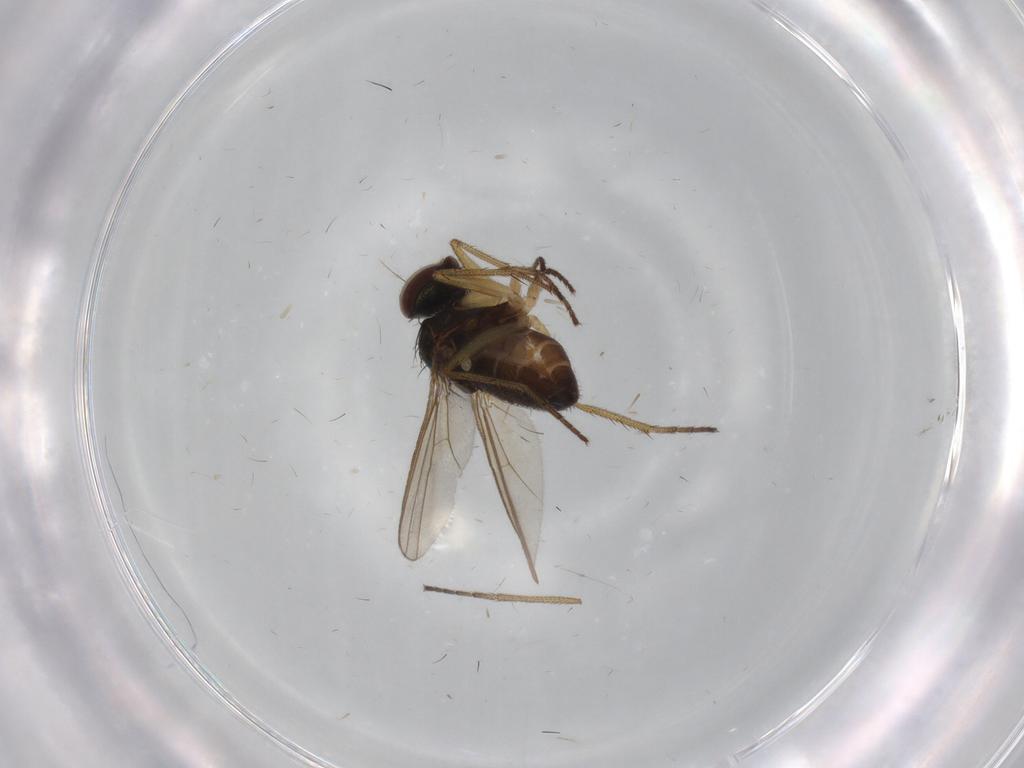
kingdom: Animalia
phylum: Arthropoda
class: Insecta
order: Diptera
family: Dolichopodidae
